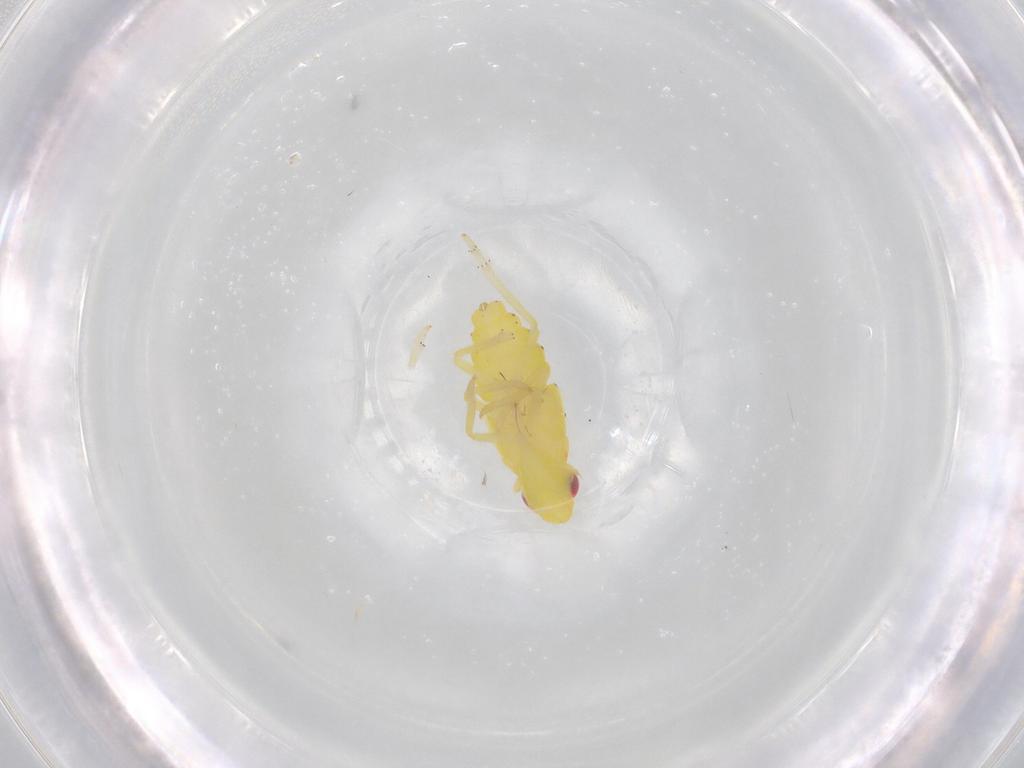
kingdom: Animalia
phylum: Arthropoda
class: Insecta
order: Hemiptera
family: Tropiduchidae
